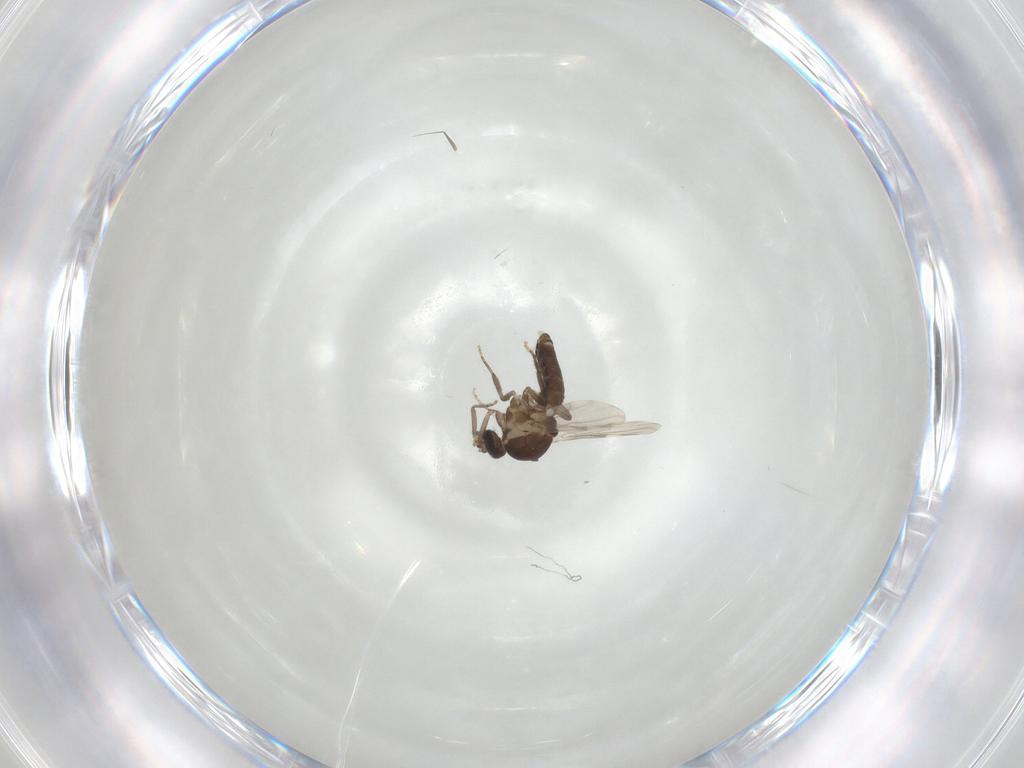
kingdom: Animalia
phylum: Arthropoda
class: Insecta
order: Diptera
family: Ceratopogonidae
